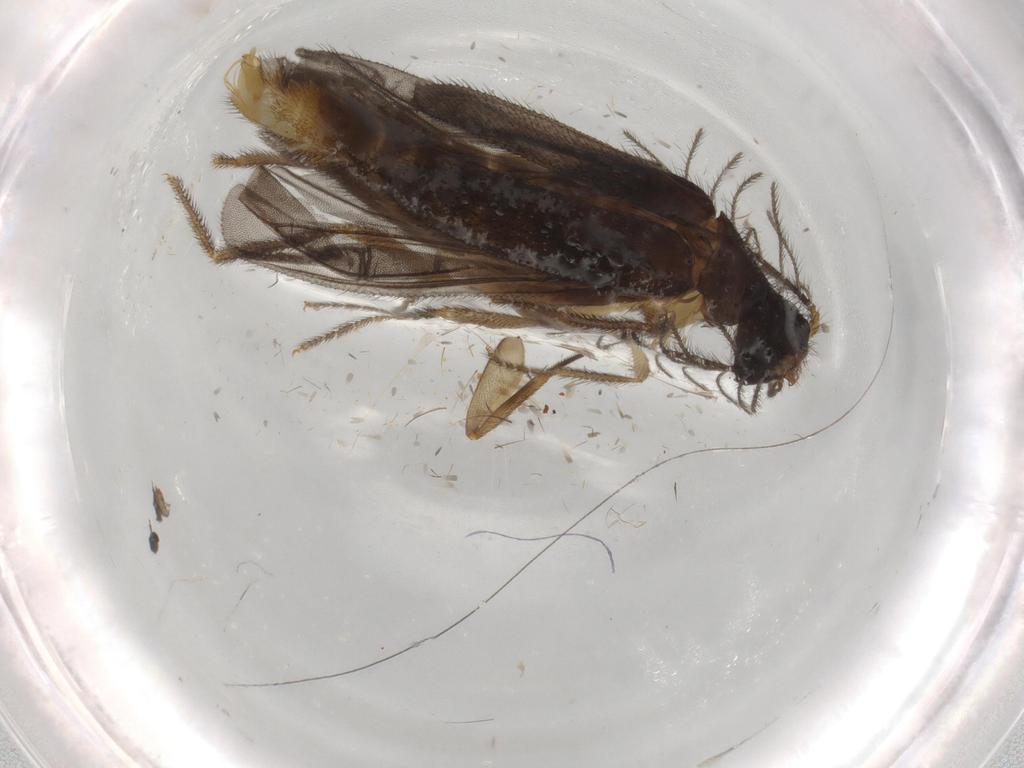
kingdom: Animalia
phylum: Arthropoda
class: Insecta
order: Coleoptera
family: Phengodidae
